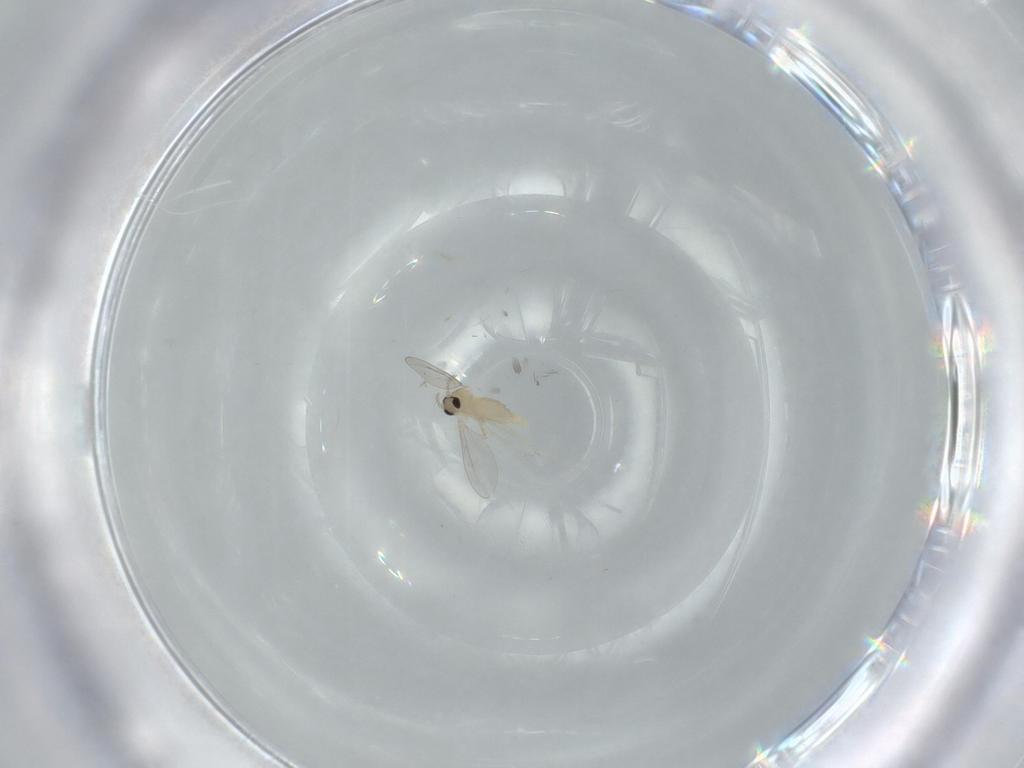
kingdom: Animalia
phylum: Arthropoda
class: Insecta
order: Diptera
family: Cecidomyiidae
